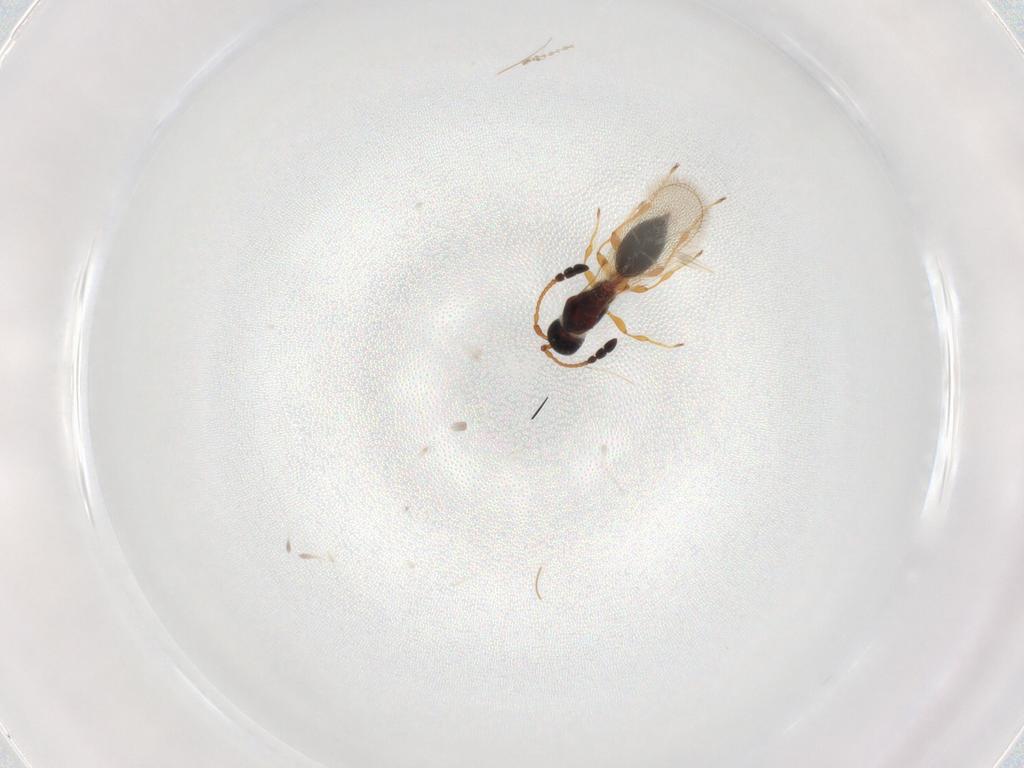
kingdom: Animalia
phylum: Arthropoda
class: Insecta
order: Hymenoptera
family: Diapriidae
